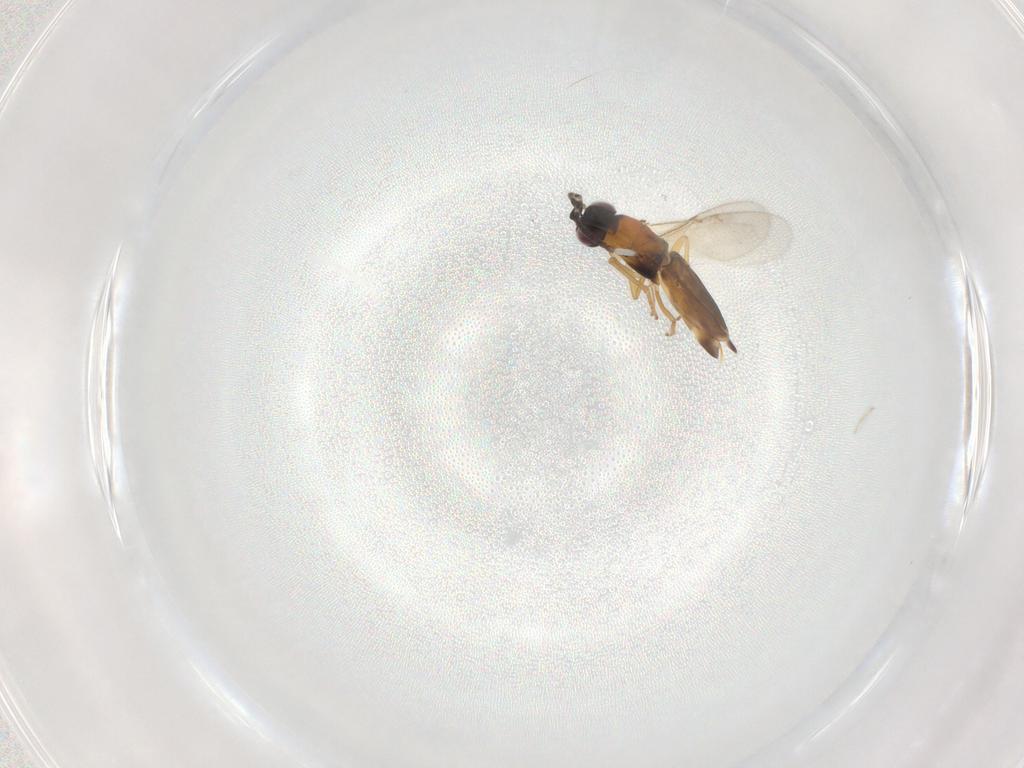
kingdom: Animalia
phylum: Arthropoda
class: Insecta
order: Hymenoptera
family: Encyrtidae
